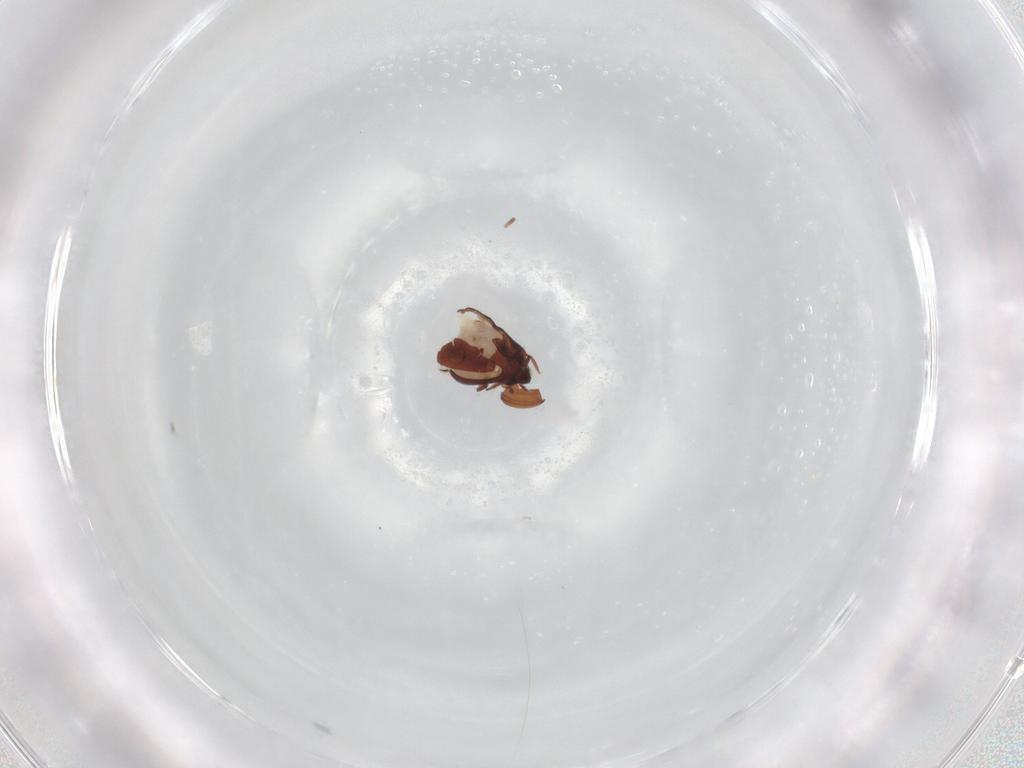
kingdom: Animalia
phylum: Arthropoda
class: Arachnida
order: Sarcoptiformes
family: Humerobatidae
